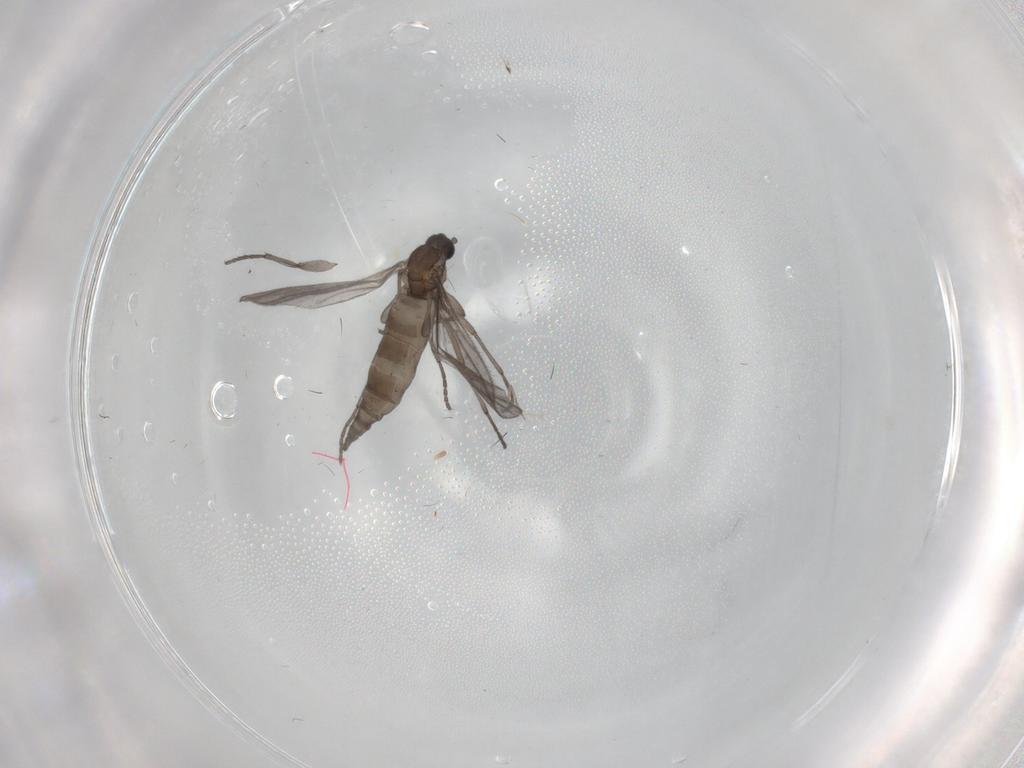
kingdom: Animalia
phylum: Arthropoda
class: Insecta
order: Diptera
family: Sciaridae
